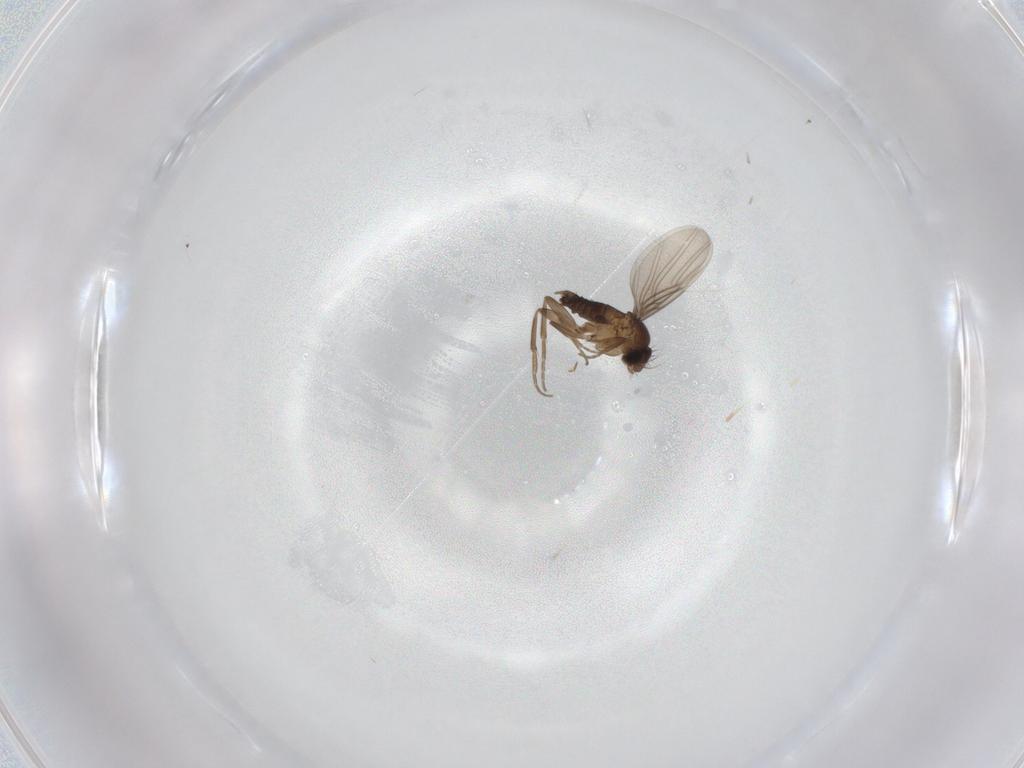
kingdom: Animalia
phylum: Arthropoda
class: Insecta
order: Diptera
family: Phoridae
